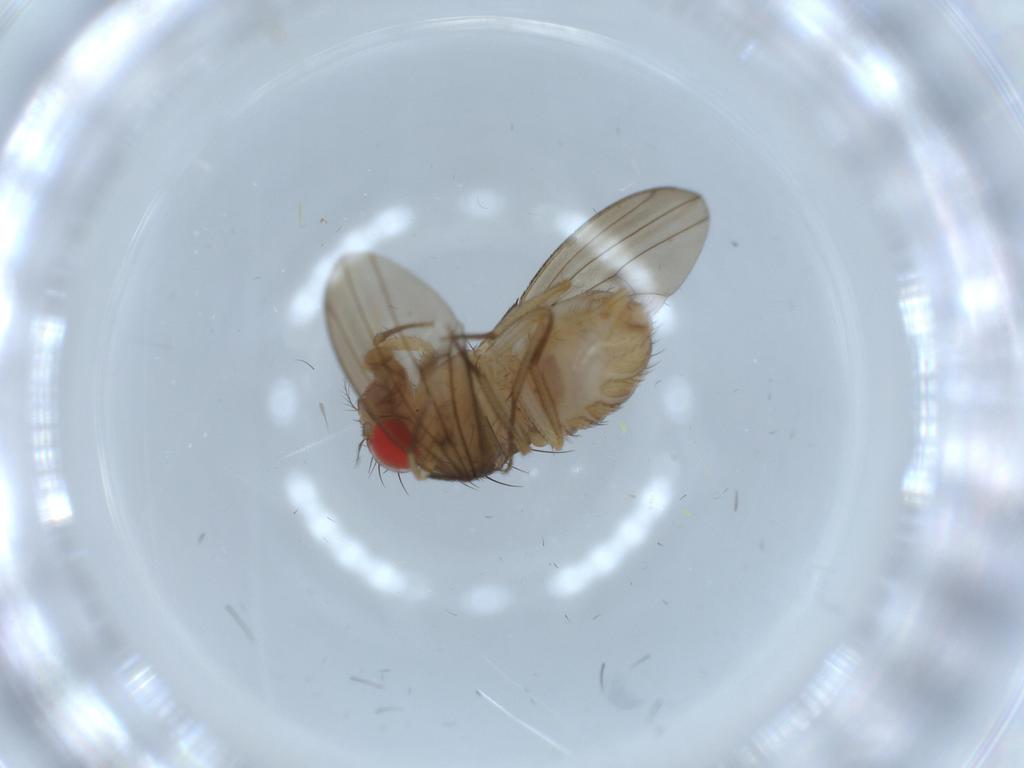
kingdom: Animalia
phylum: Arthropoda
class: Insecta
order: Diptera
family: Drosophilidae
